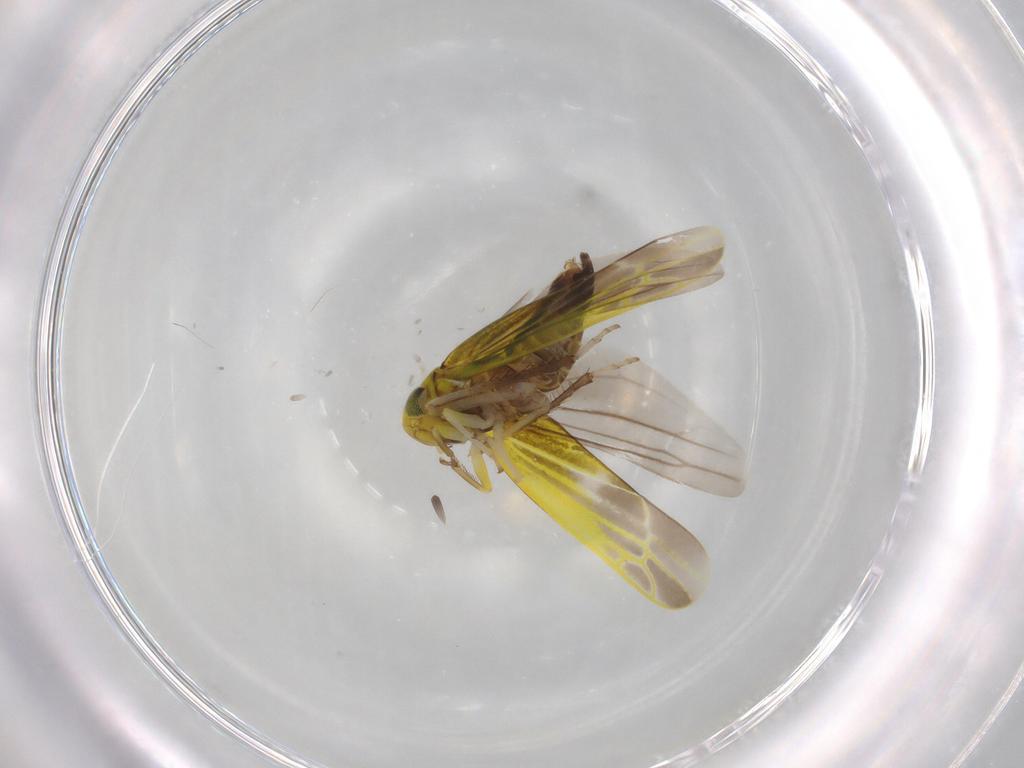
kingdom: Animalia
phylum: Arthropoda
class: Insecta
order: Hemiptera
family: Cicadellidae
